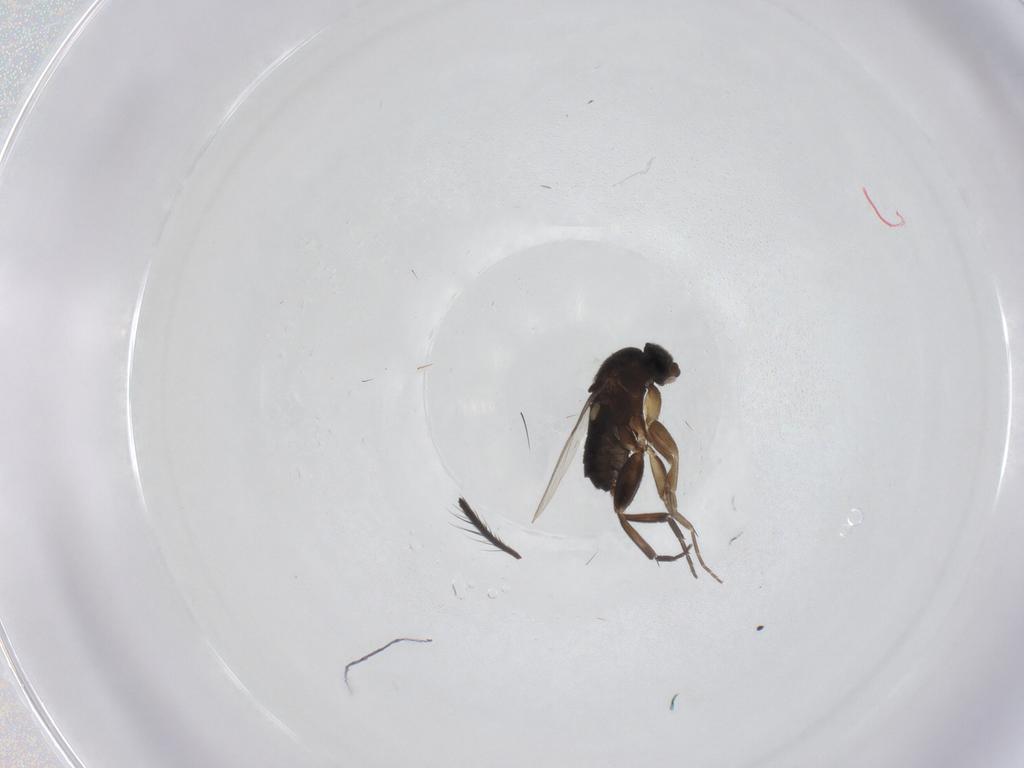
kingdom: Animalia
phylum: Arthropoda
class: Insecta
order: Diptera
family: Phoridae
